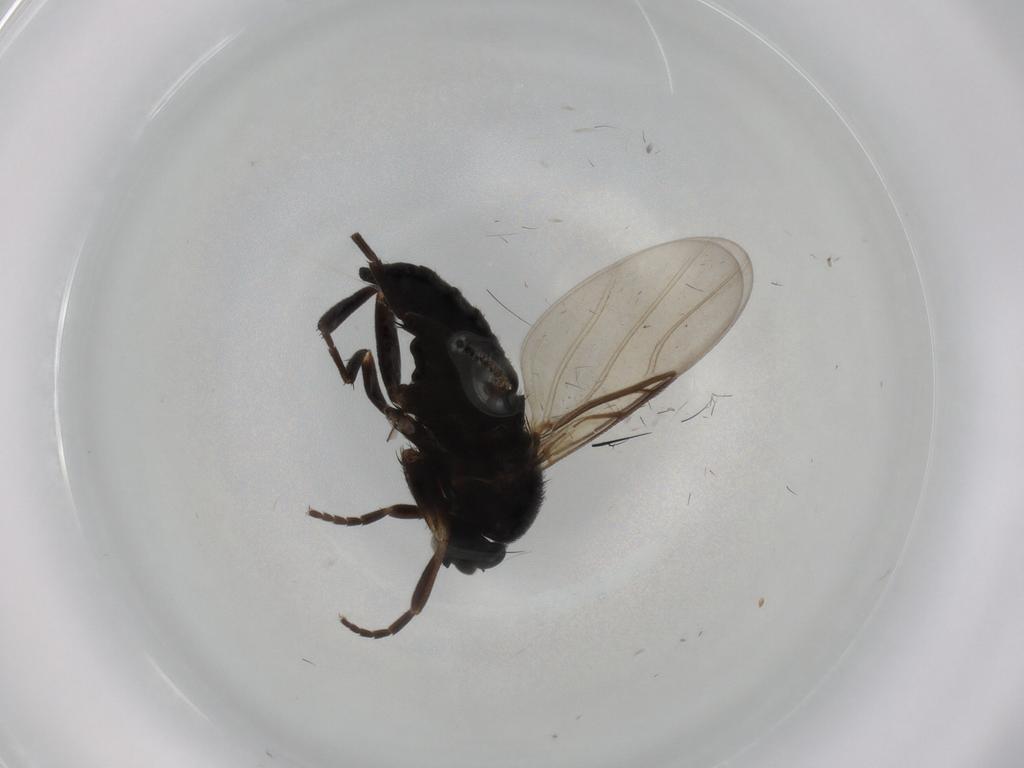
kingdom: Animalia
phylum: Arthropoda
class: Insecta
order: Diptera
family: Phoridae
